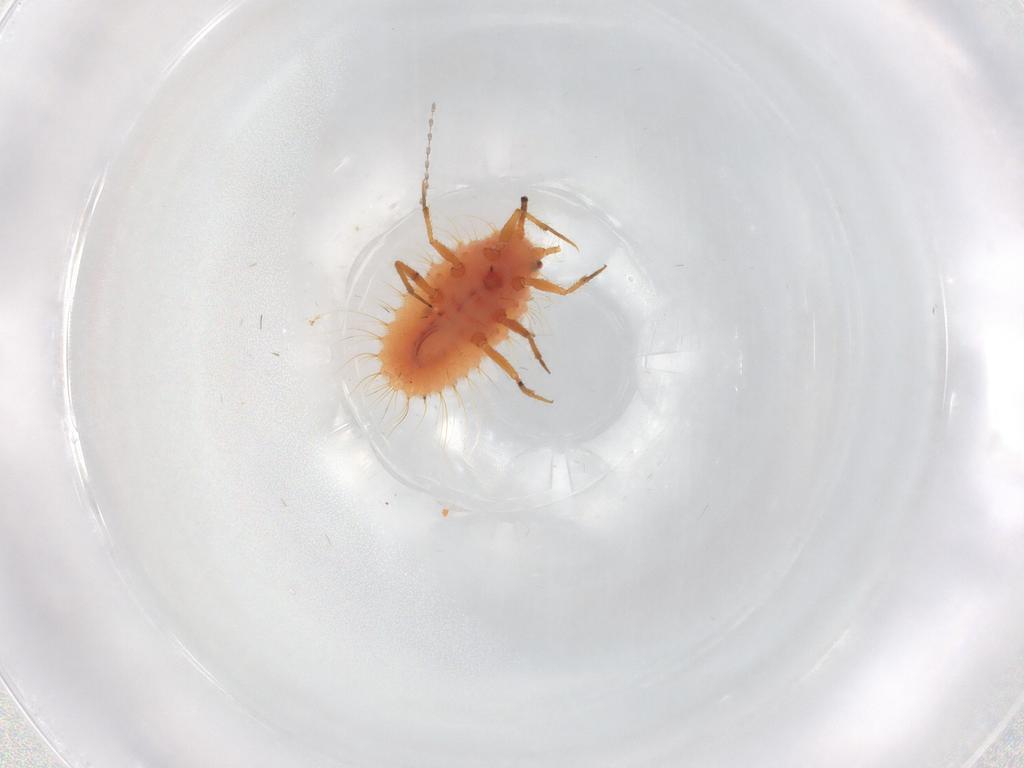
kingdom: Animalia
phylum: Arthropoda
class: Insecta
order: Hemiptera
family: Coccoidea_incertae_sedis
